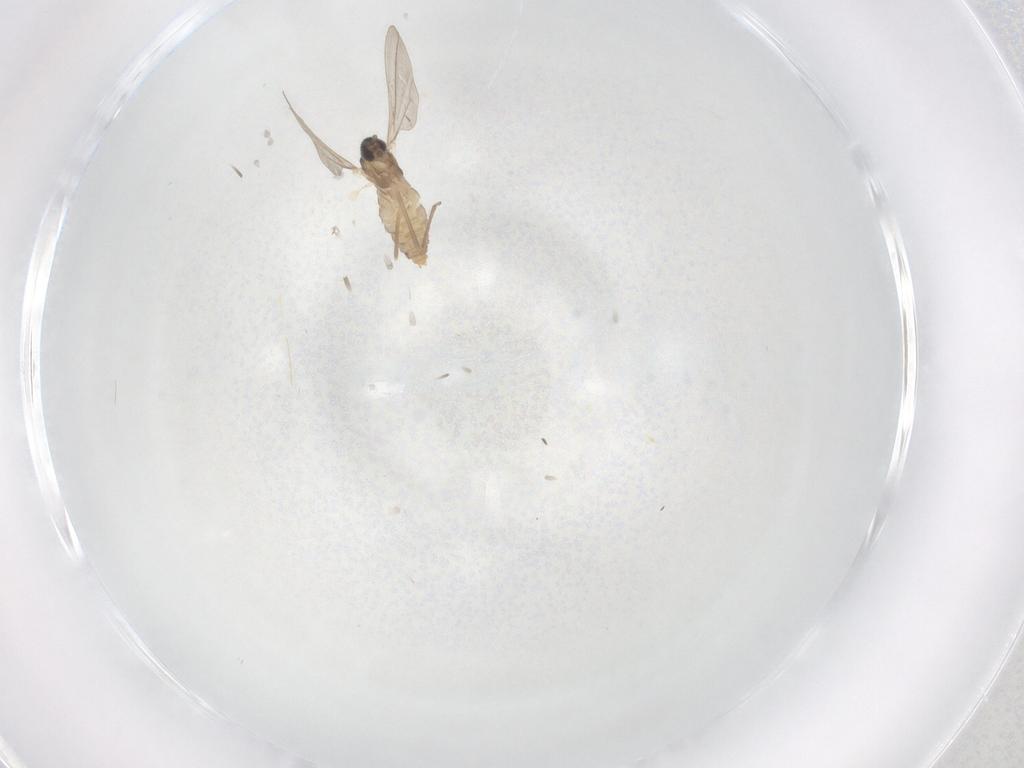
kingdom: Animalia
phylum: Arthropoda
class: Insecta
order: Diptera
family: Cecidomyiidae
